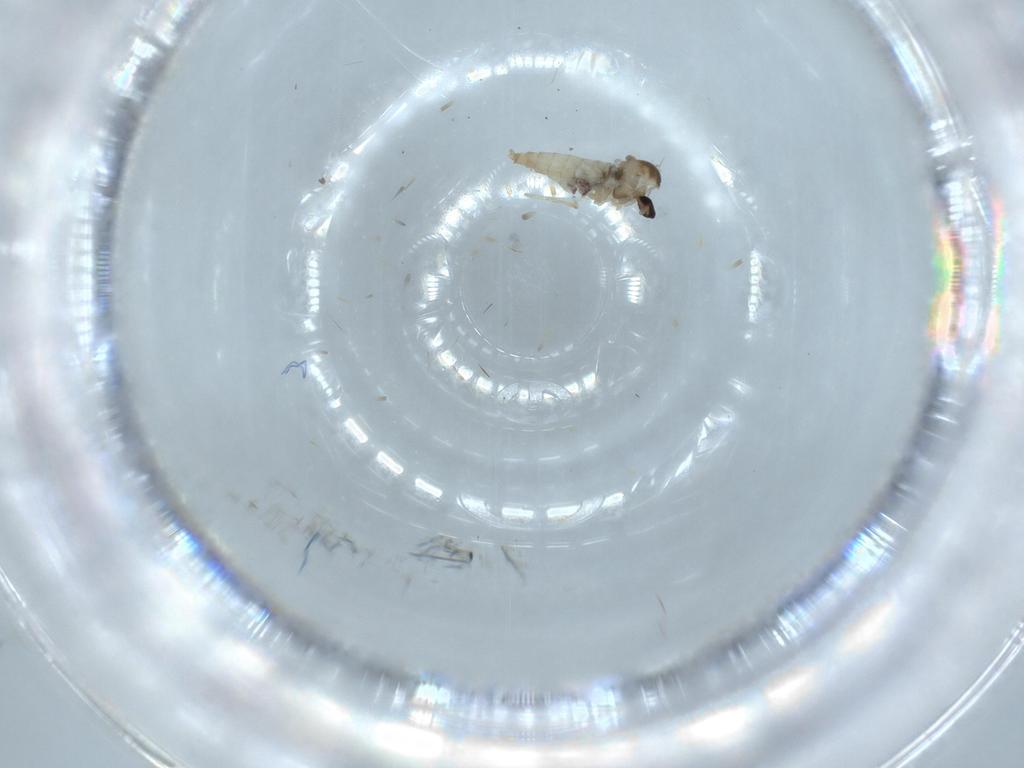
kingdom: Animalia
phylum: Arthropoda
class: Insecta
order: Diptera
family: Cecidomyiidae
